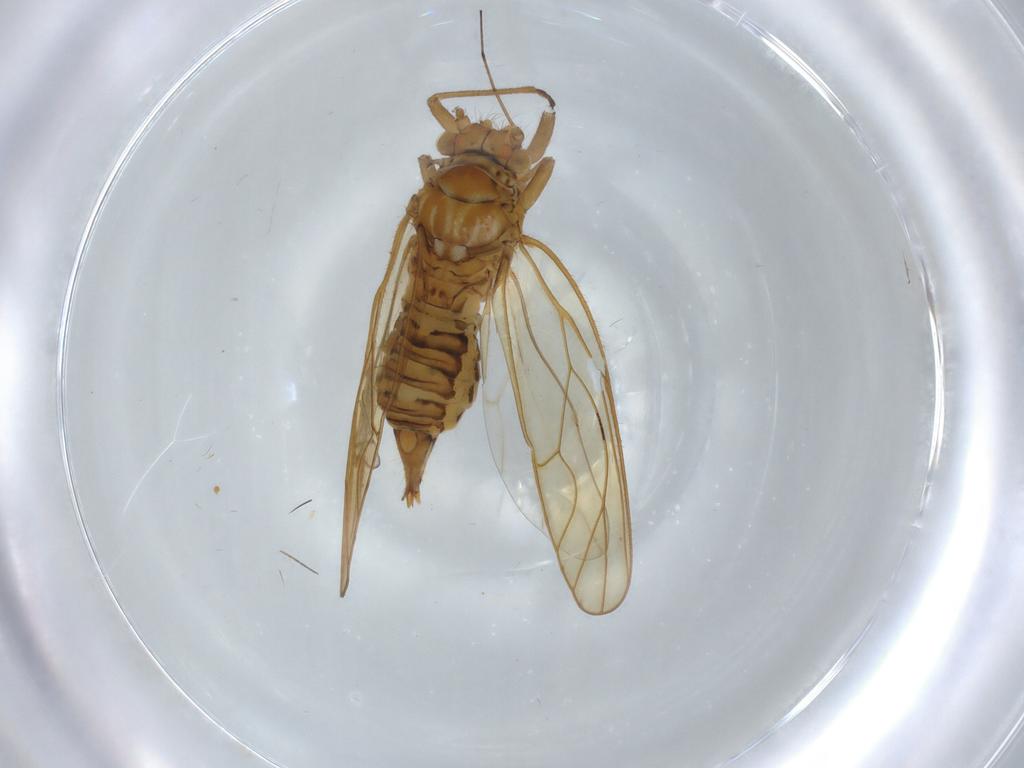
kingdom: Animalia
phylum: Arthropoda
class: Insecta
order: Hemiptera
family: Psyllidae
